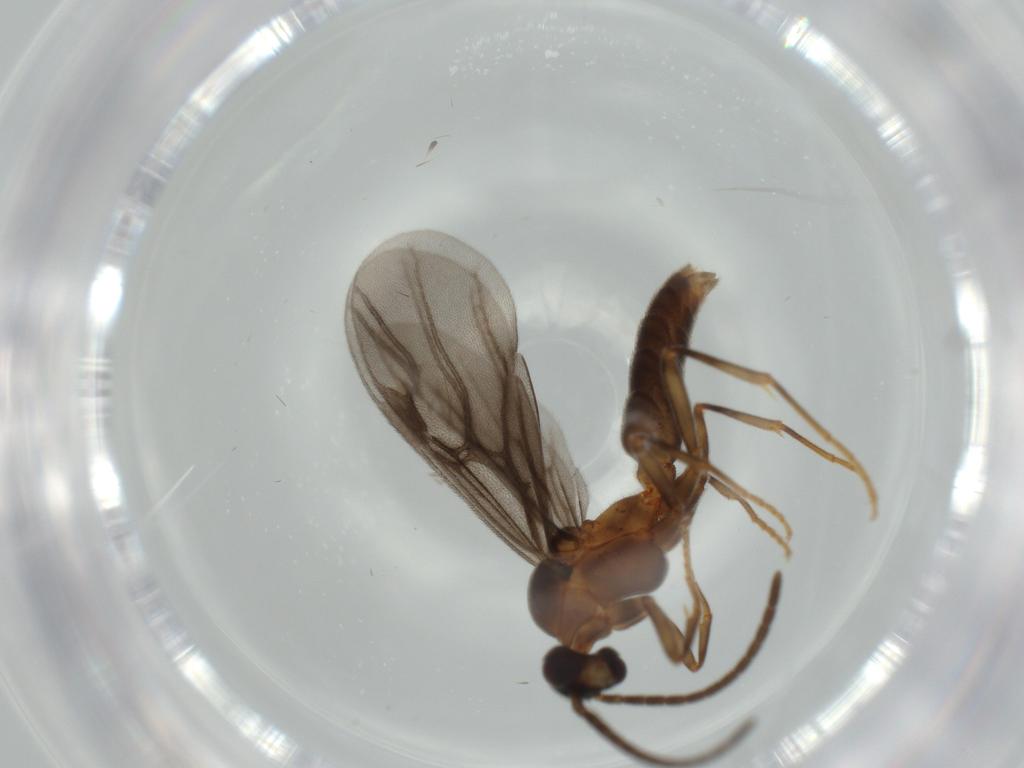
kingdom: Animalia
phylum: Arthropoda
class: Insecta
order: Hymenoptera
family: Formicidae
